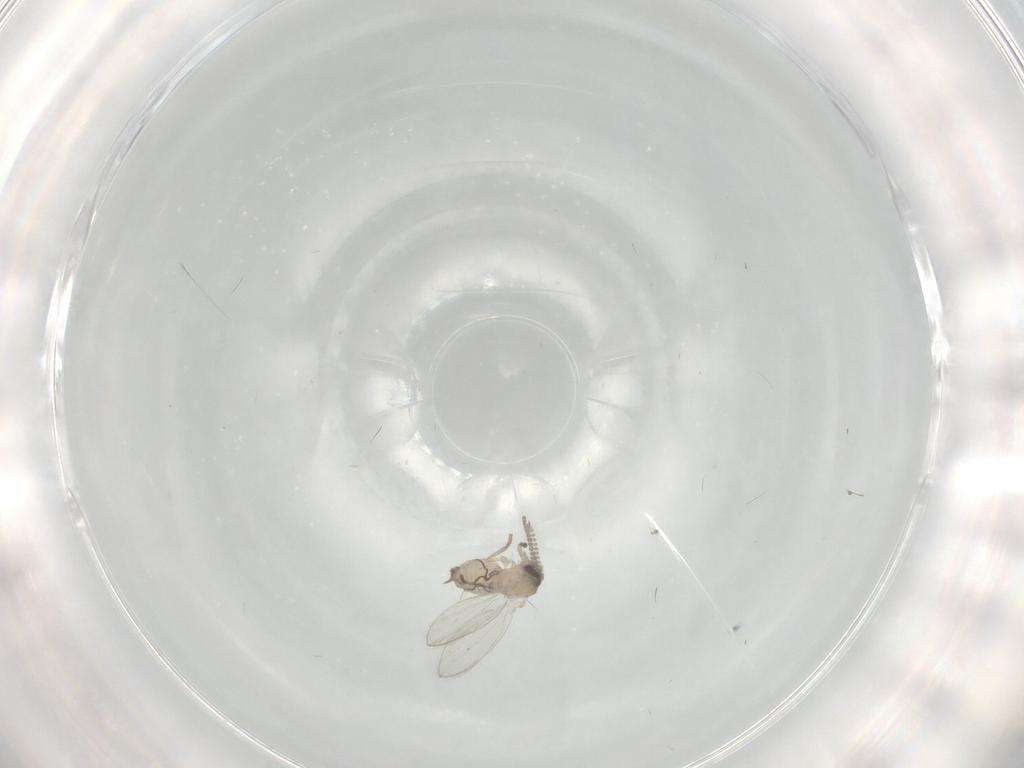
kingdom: Animalia
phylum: Arthropoda
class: Insecta
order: Diptera
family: Psychodidae
